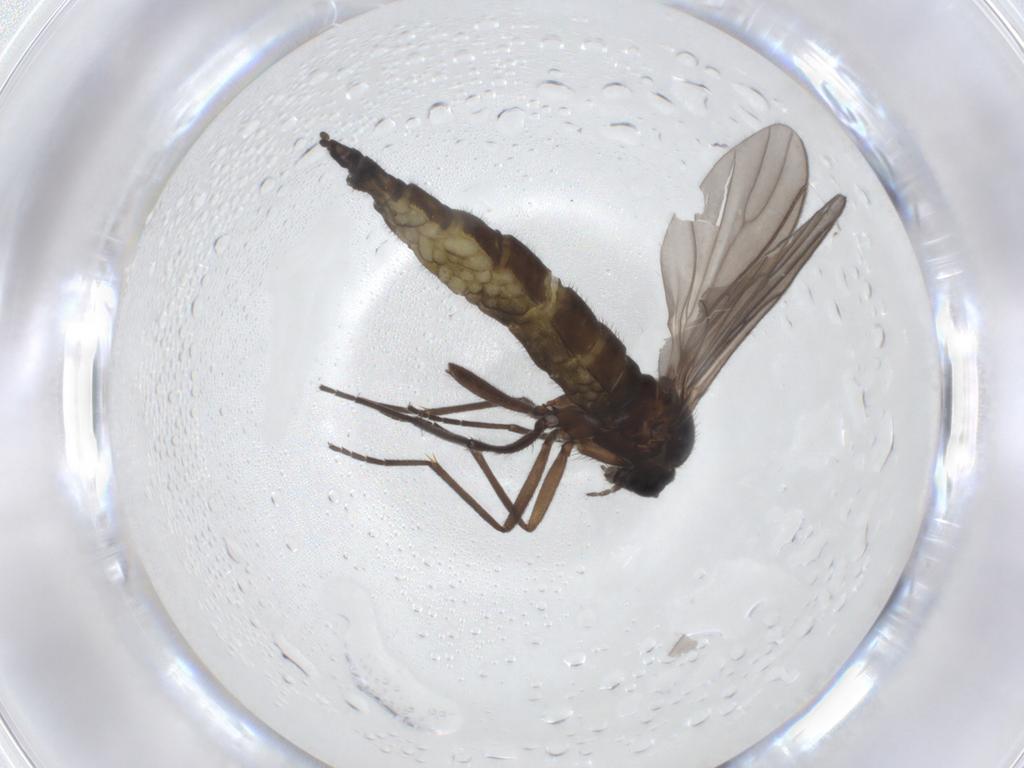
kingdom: Animalia
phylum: Arthropoda
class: Insecta
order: Diptera
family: Sciaridae
